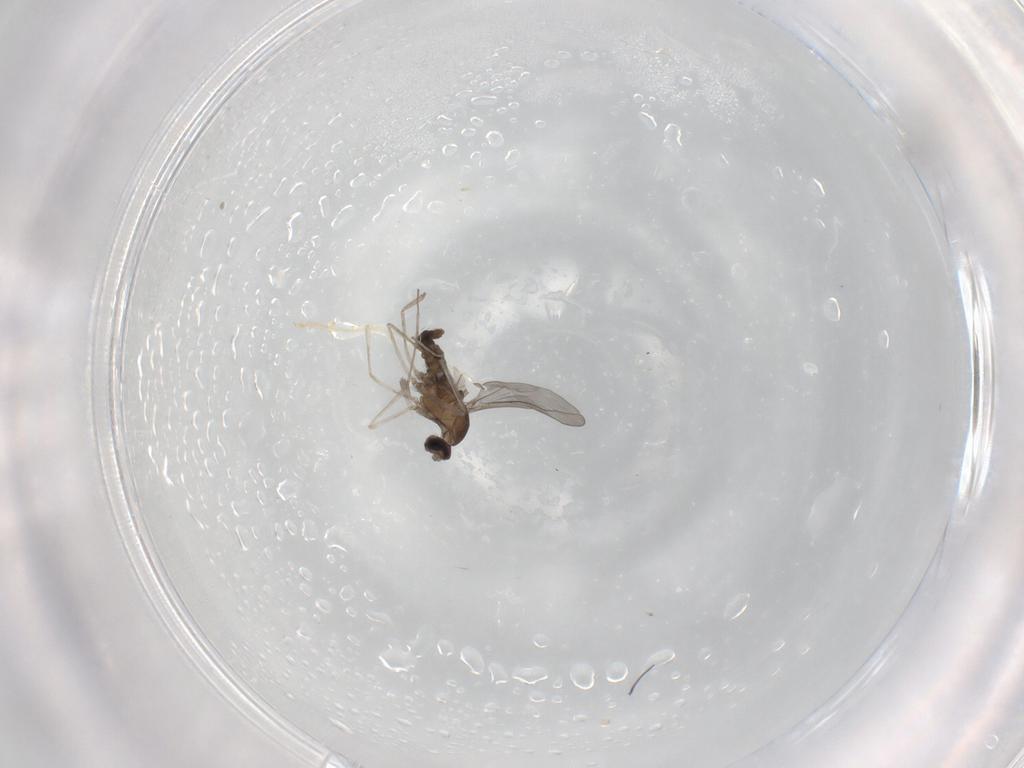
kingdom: Animalia
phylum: Arthropoda
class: Insecta
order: Diptera
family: Cecidomyiidae
